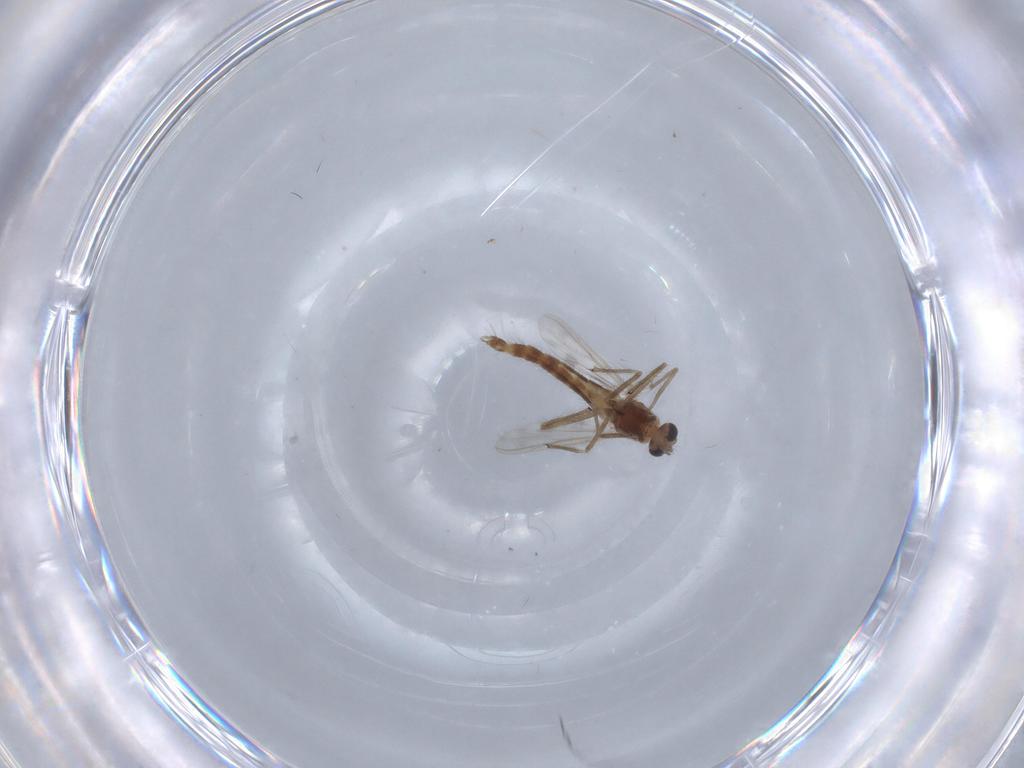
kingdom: Animalia
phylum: Arthropoda
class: Insecta
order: Diptera
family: Chironomidae
